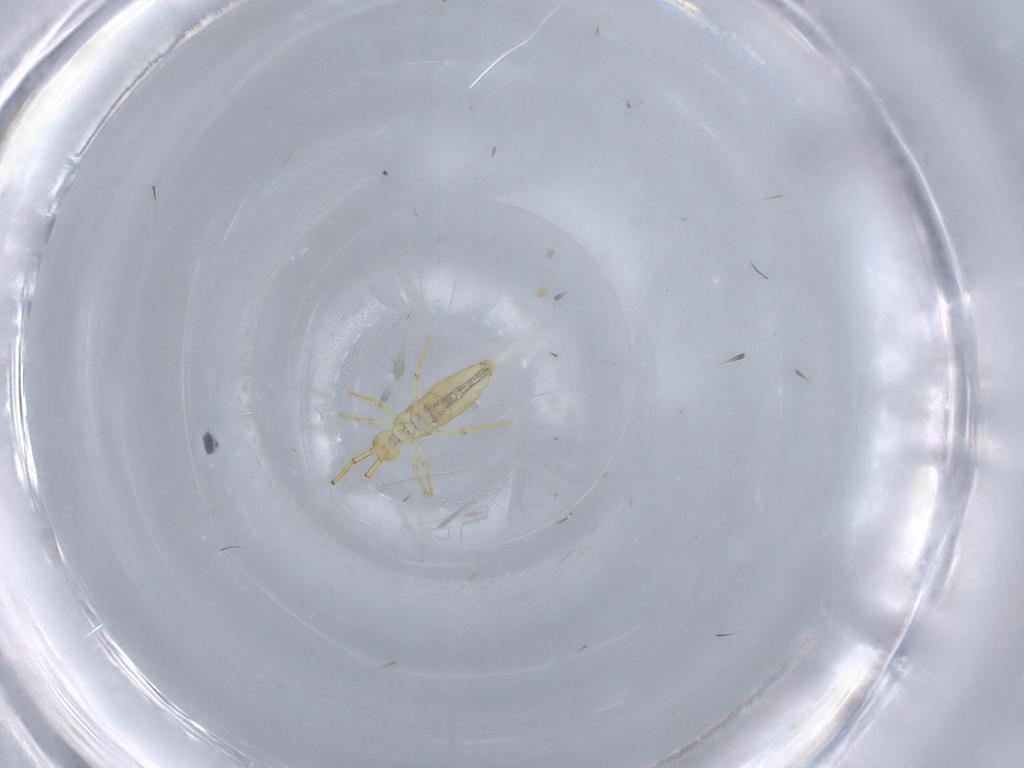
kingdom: Animalia
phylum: Arthropoda
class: Collembola
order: Entomobryomorpha
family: Paronellidae
